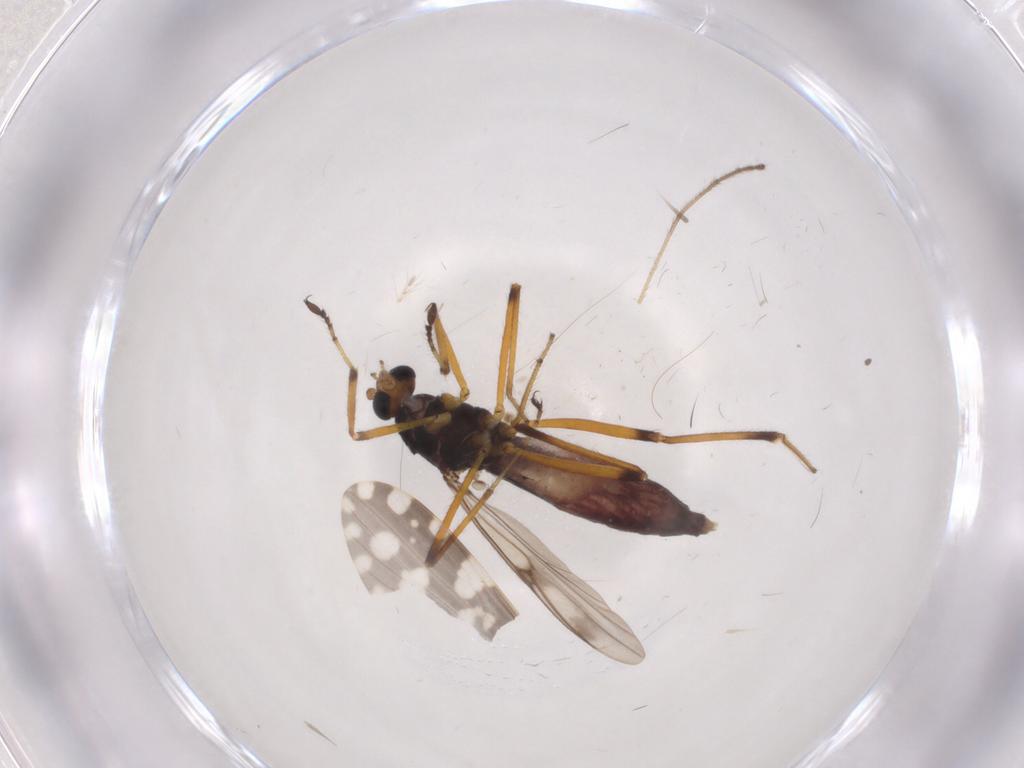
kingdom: Animalia
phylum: Arthropoda
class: Insecta
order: Diptera
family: Limoniidae
